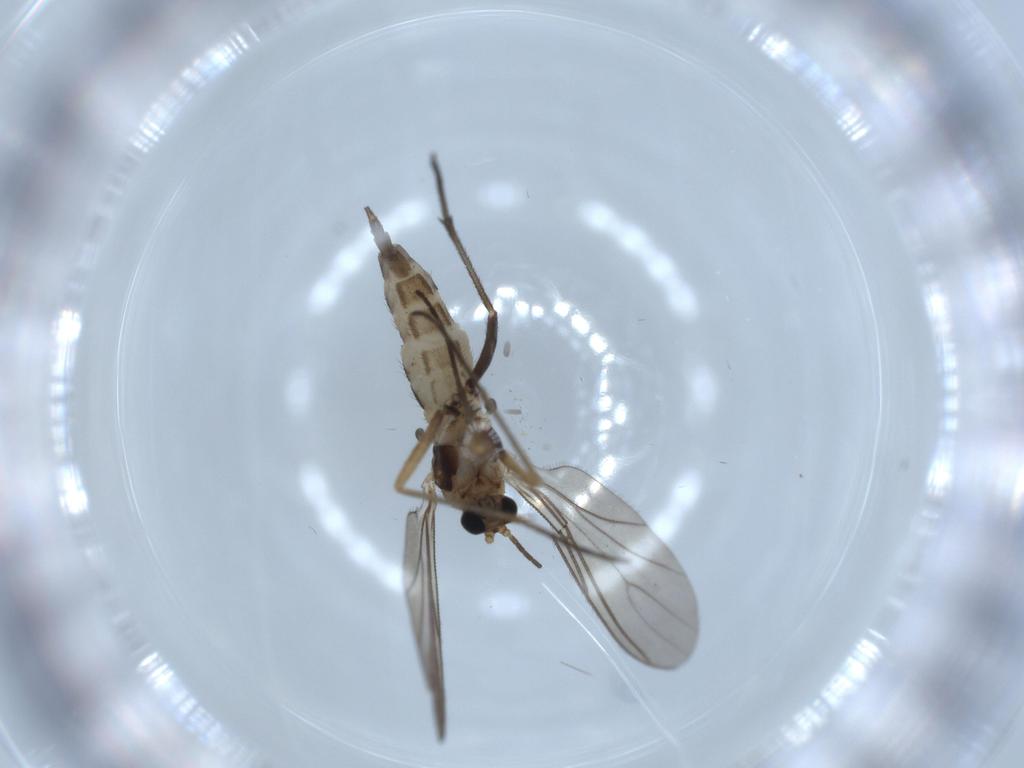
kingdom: Animalia
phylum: Arthropoda
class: Insecta
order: Diptera
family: Sciaridae
